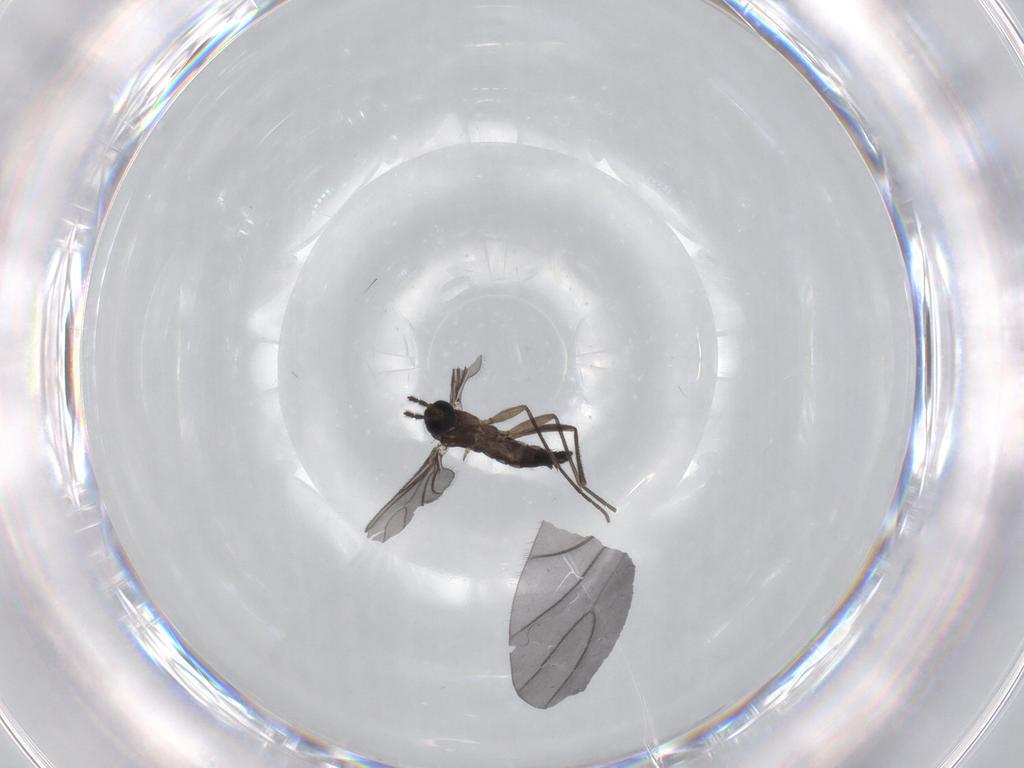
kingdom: Animalia
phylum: Arthropoda
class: Insecta
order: Diptera
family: Sciaridae
